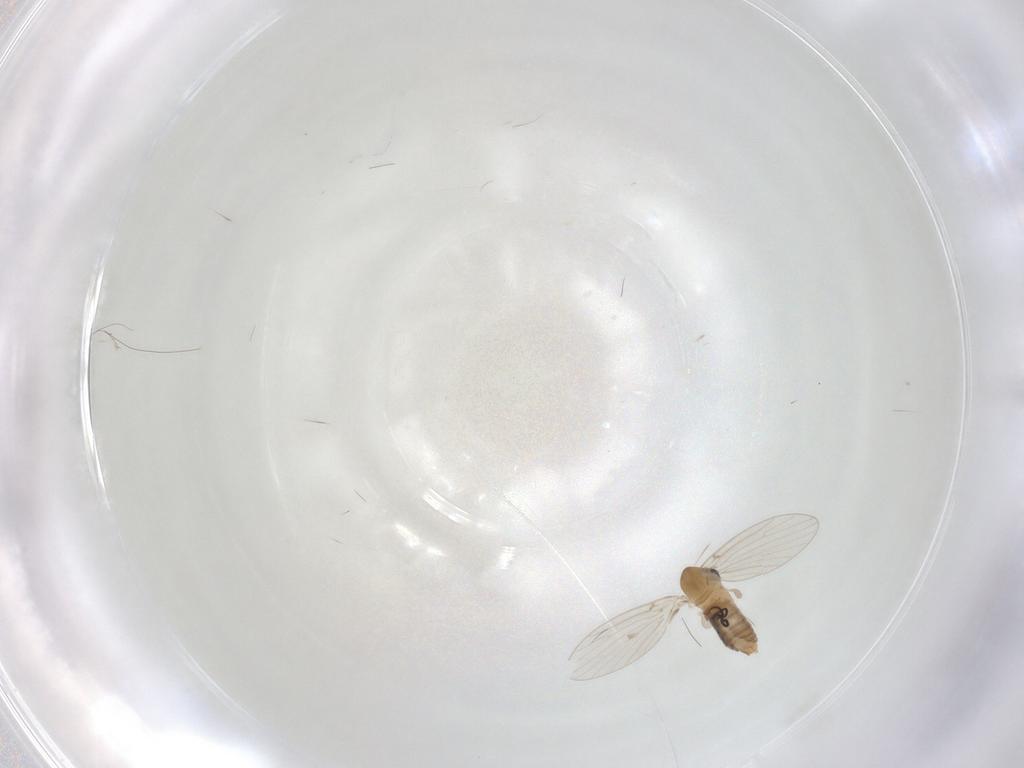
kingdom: Animalia
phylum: Arthropoda
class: Insecta
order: Diptera
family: Psychodidae
